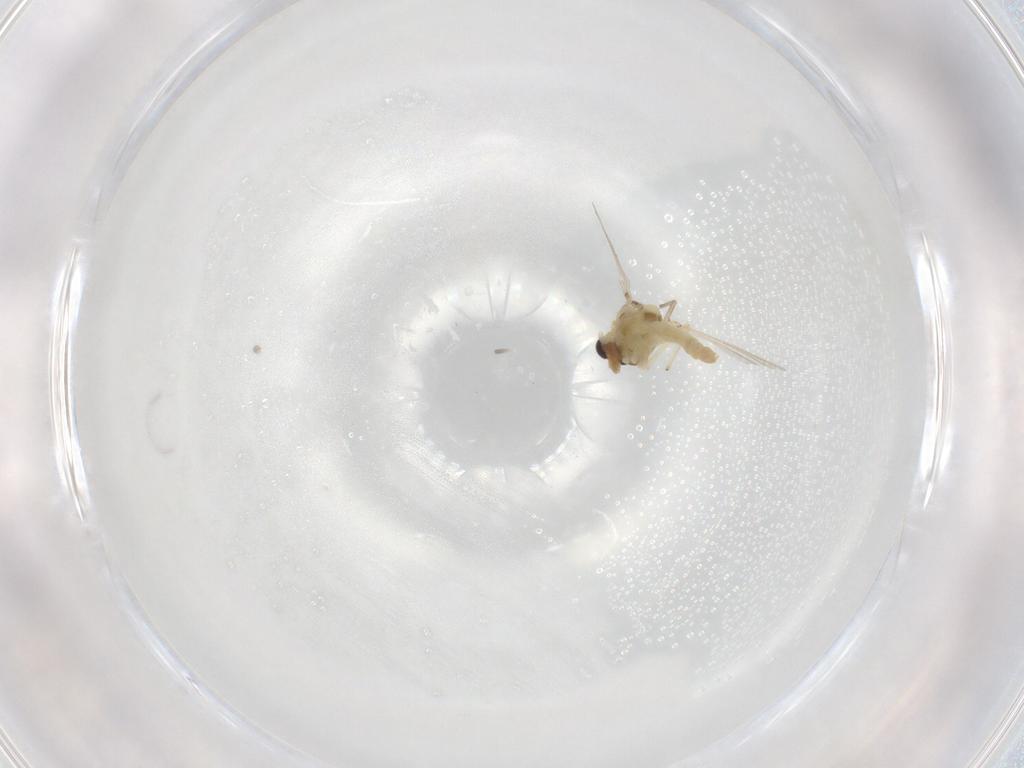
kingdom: Animalia
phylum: Arthropoda
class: Insecta
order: Diptera
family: Chironomidae
